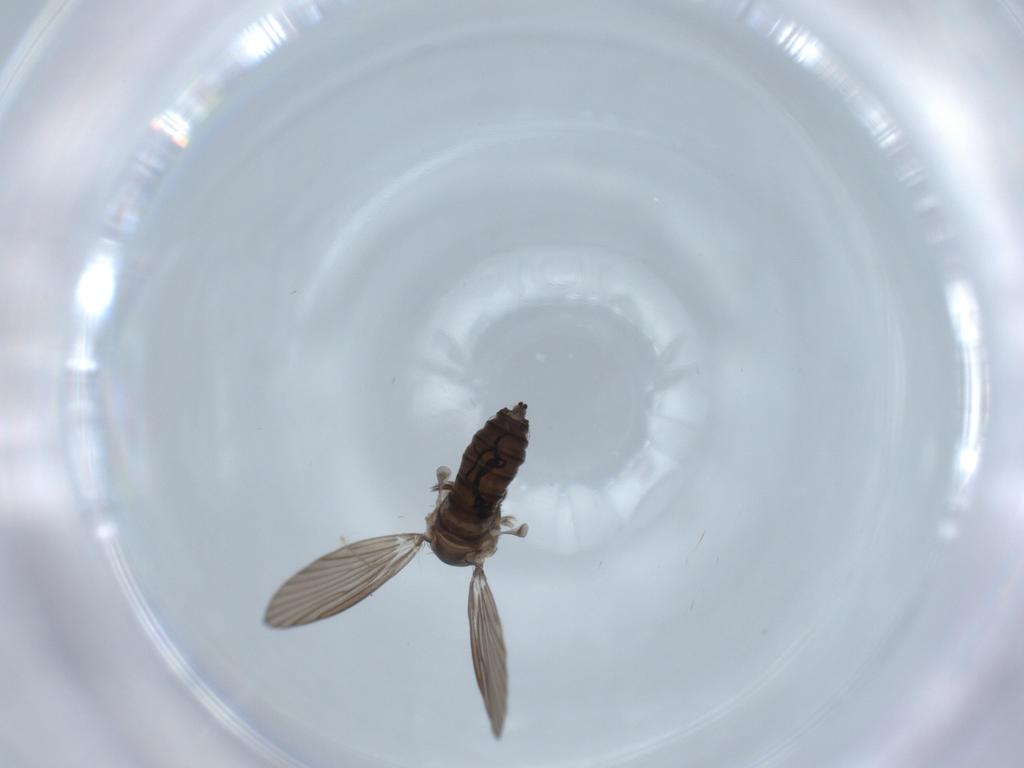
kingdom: Animalia
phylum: Arthropoda
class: Insecta
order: Diptera
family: Psychodidae
